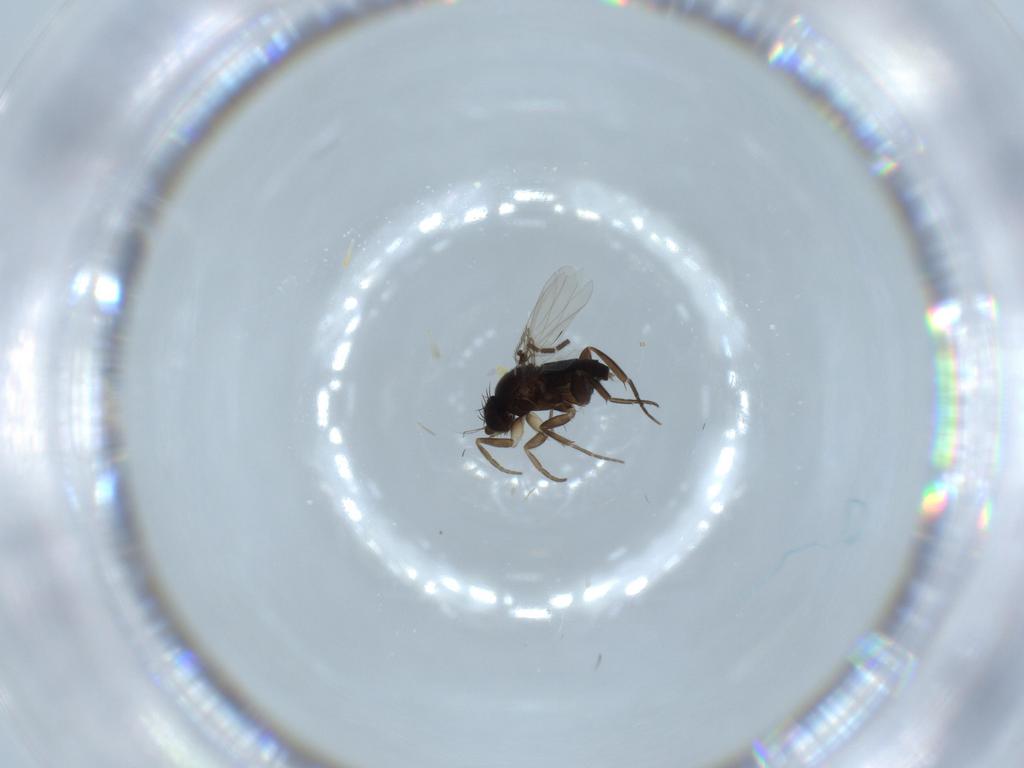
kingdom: Animalia
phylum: Arthropoda
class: Insecta
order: Diptera
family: Phoridae
